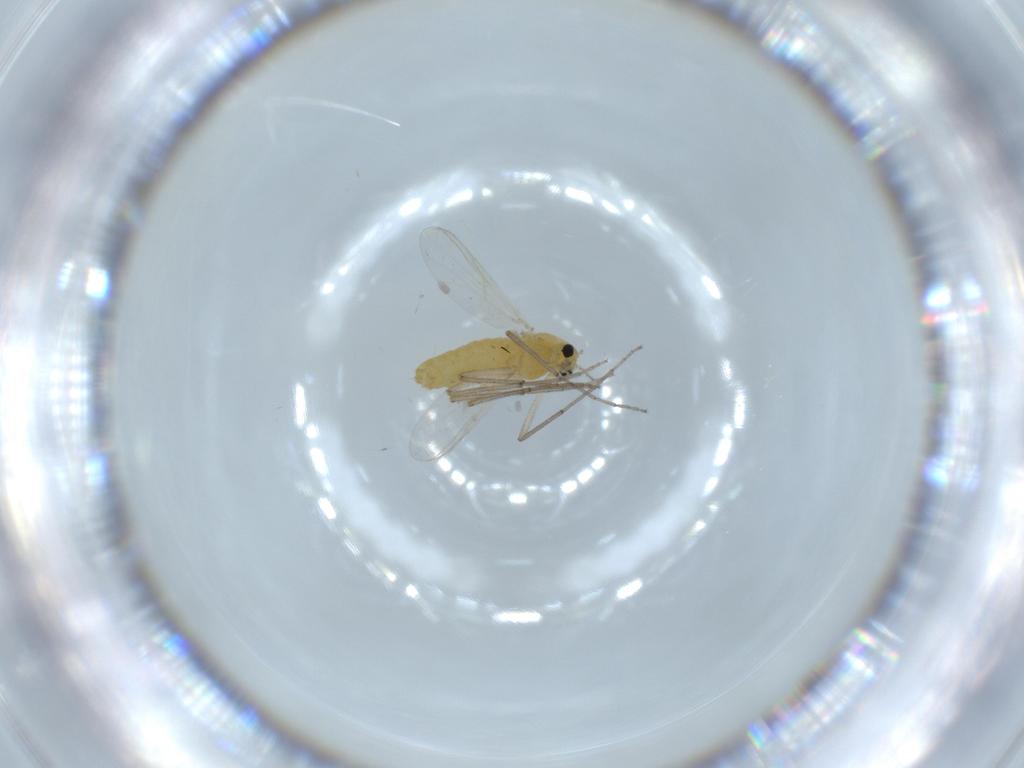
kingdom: Animalia
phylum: Arthropoda
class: Insecta
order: Diptera
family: Chironomidae
